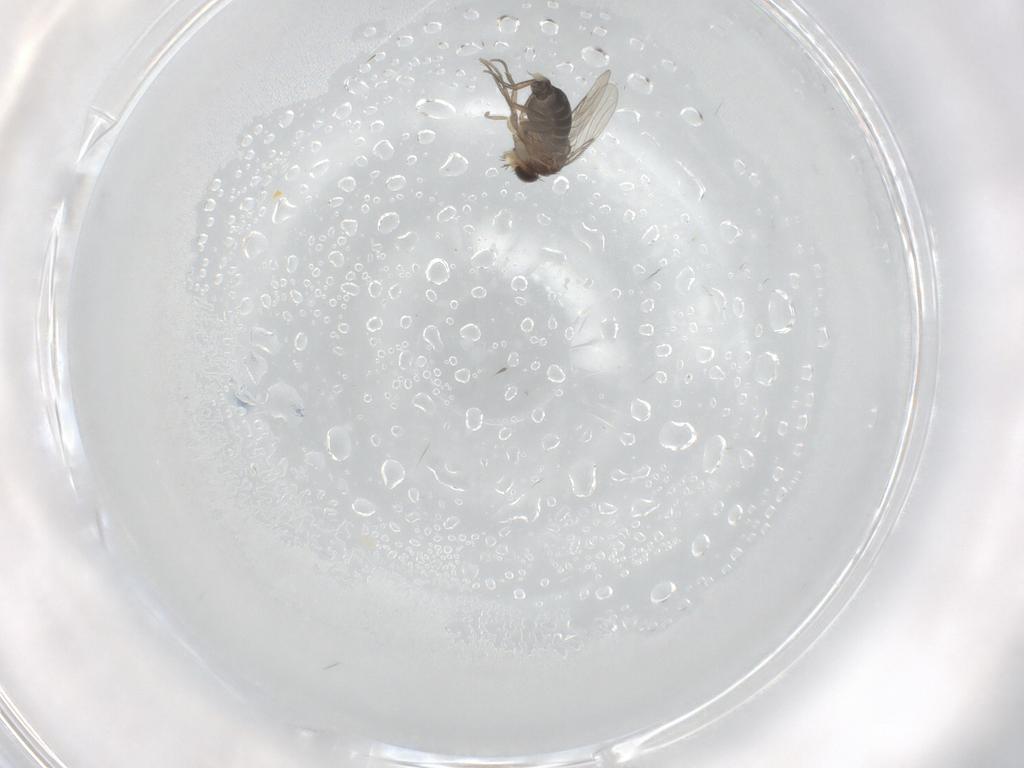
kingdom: Animalia
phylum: Arthropoda
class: Insecta
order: Diptera
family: Phoridae
